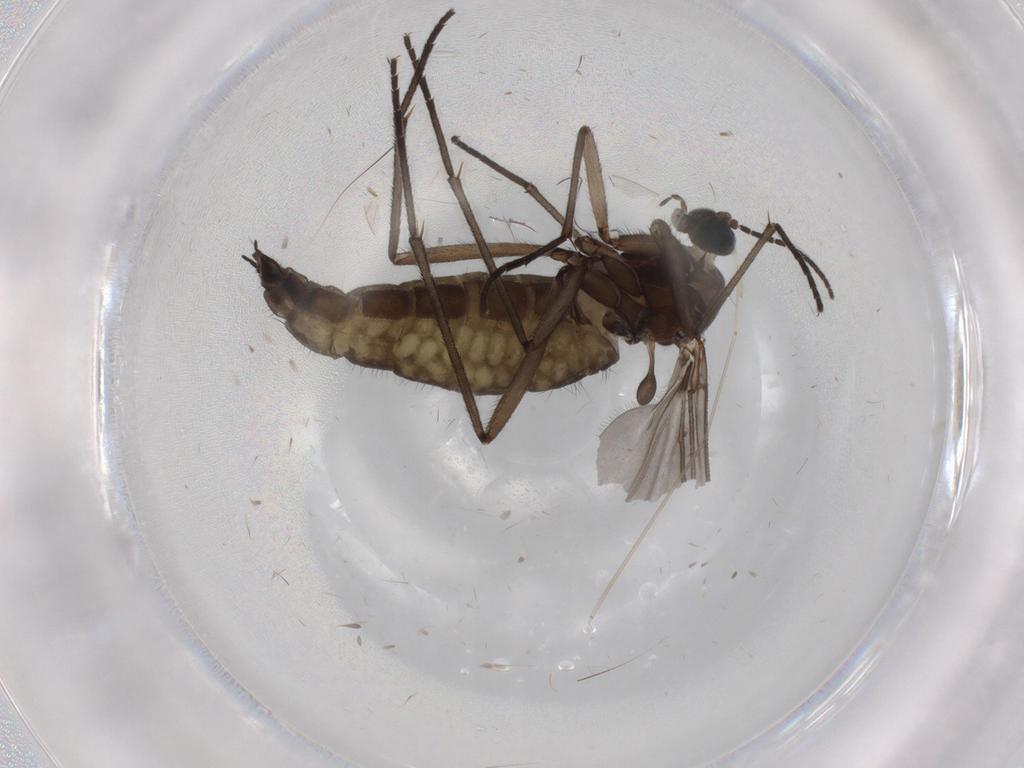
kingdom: Animalia
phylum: Arthropoda
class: Insecta
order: Diptera
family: Sciaridae
